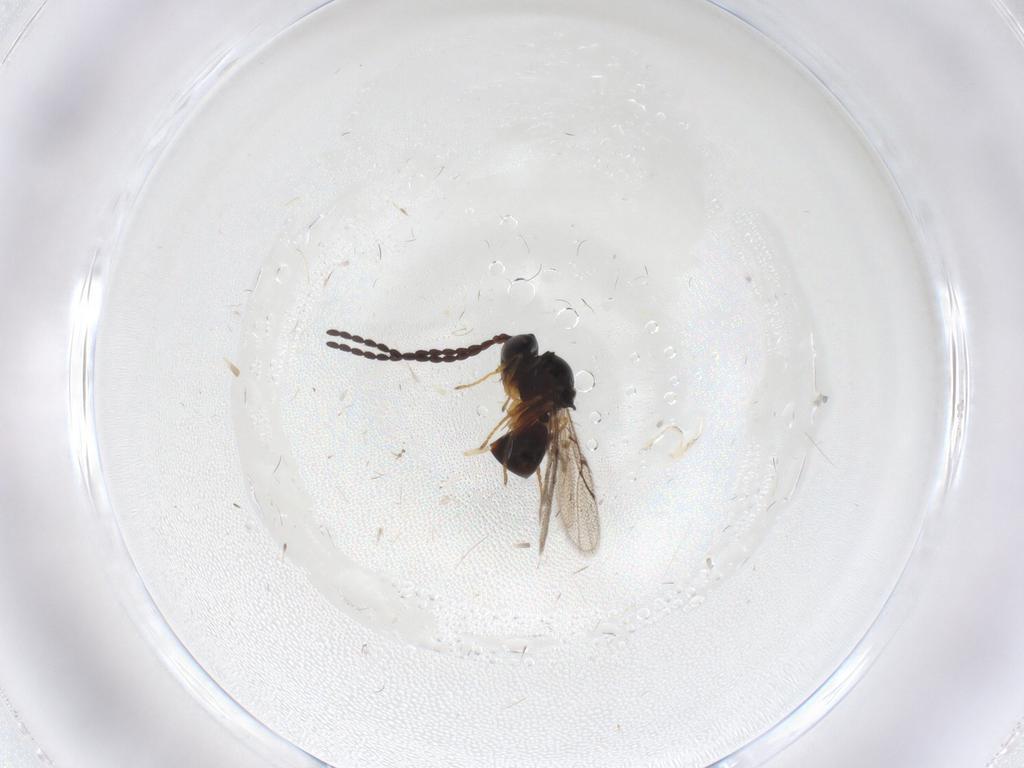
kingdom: Animalia
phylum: Arthropoda
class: Insecta
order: Hymenoptera
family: Figitidae
